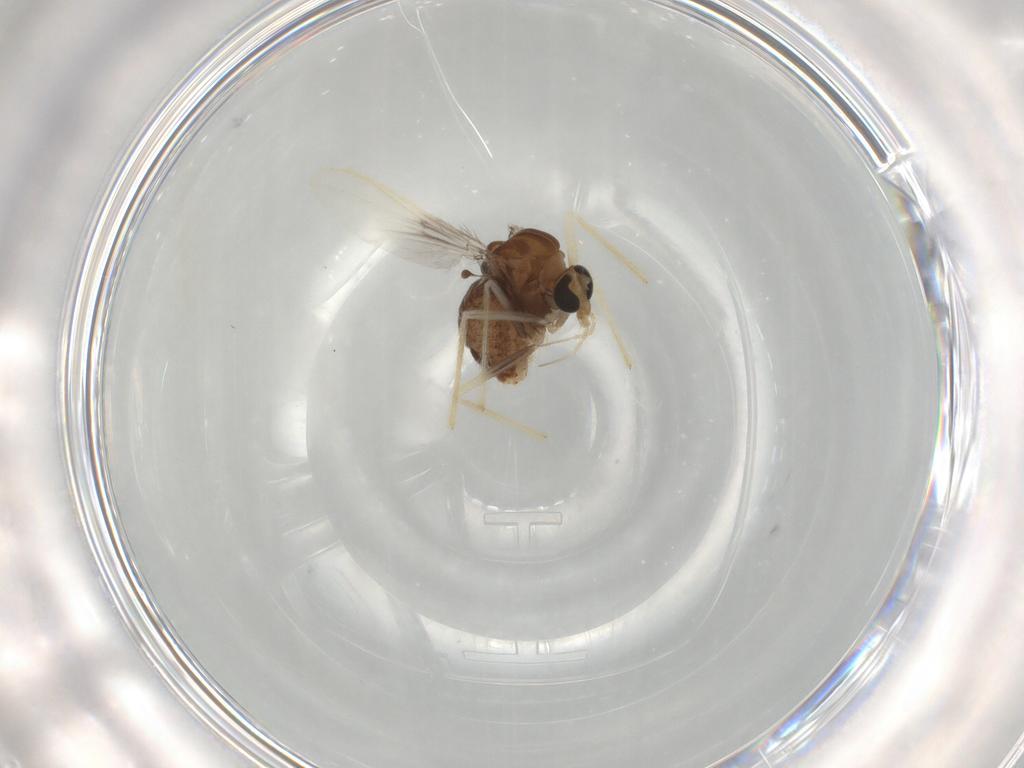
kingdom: Animalia
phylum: Arthropoda
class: Insecta
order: Diptera
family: Chironomidae
